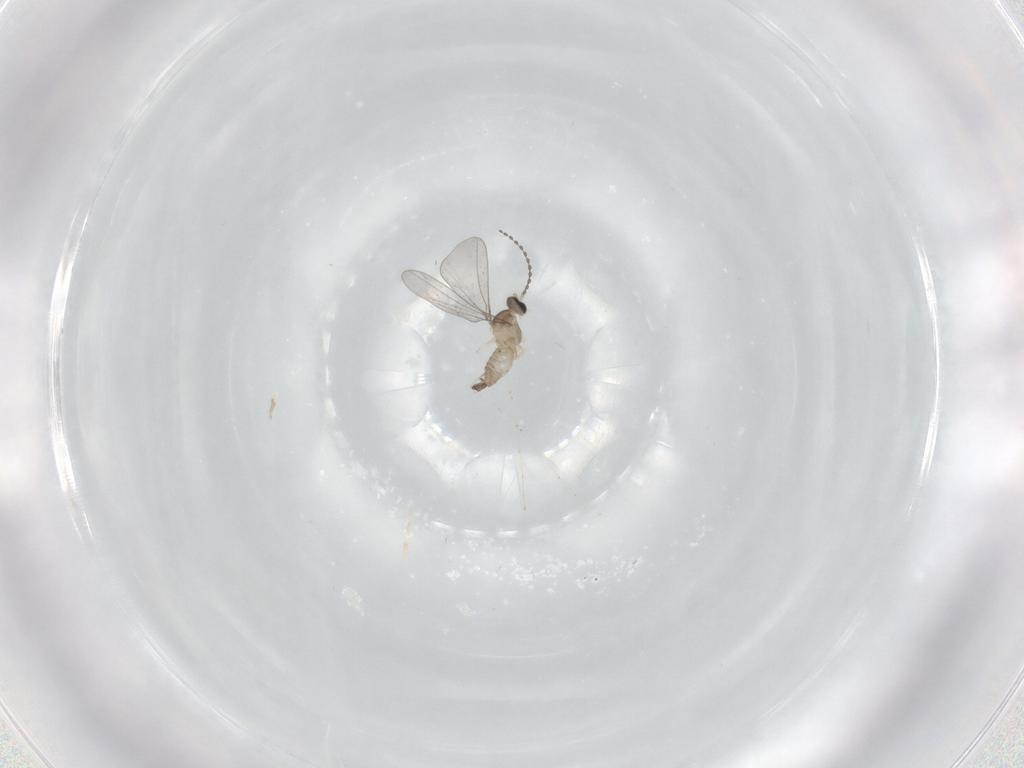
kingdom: Animalia
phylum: Arthropoda
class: Insecta
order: Diptera
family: Cecidomyiidae
